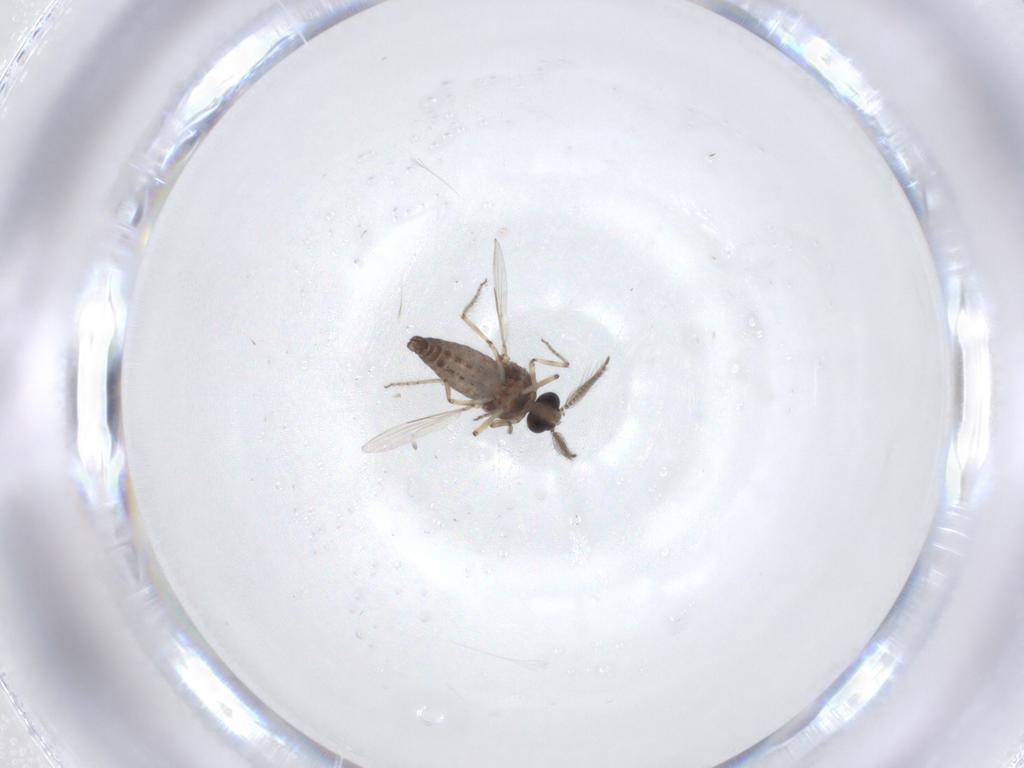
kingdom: Animalia
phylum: Arthropoda
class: Insecta
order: Diptera
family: Ceratopogonidae
